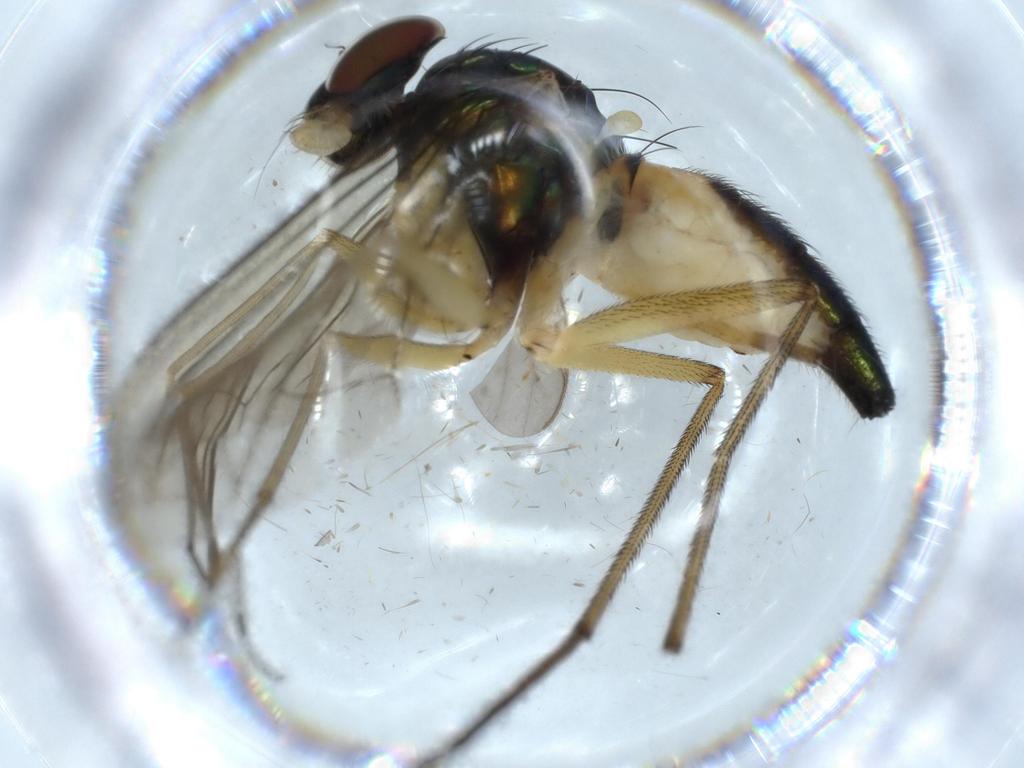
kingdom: Animalia
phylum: Arthropoda
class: Insecta
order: Diptera
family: Dolichopodidae
